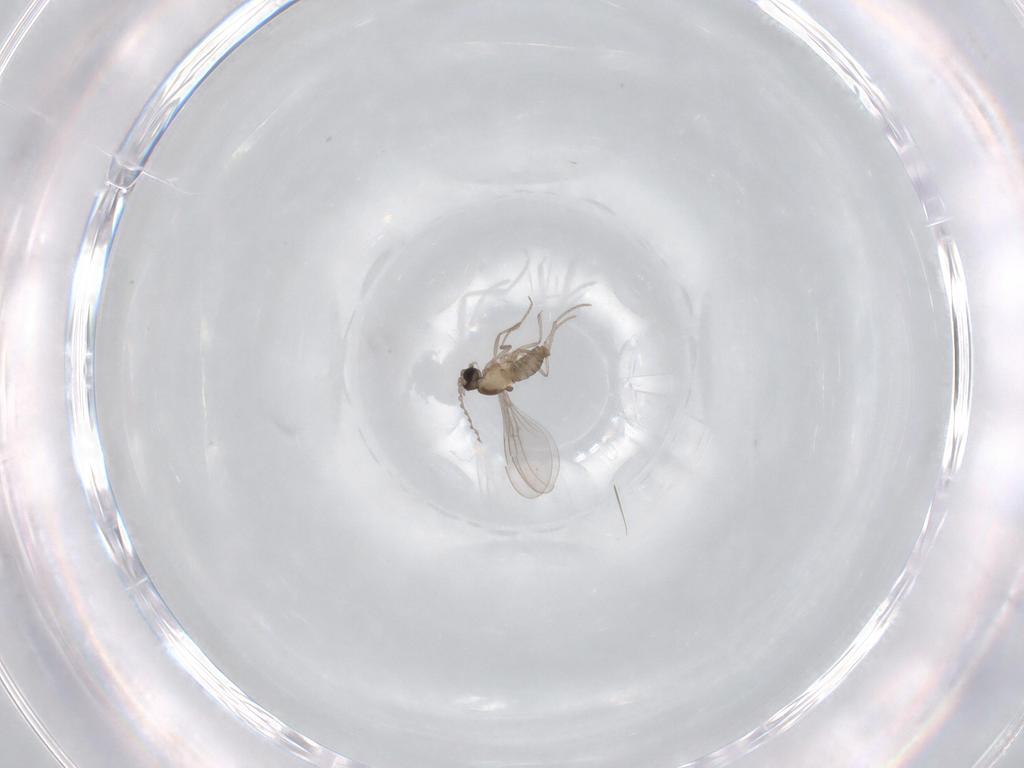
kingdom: Animalia
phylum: Arthropoda
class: Insecta
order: Diptera
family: Cecidomyiidae
